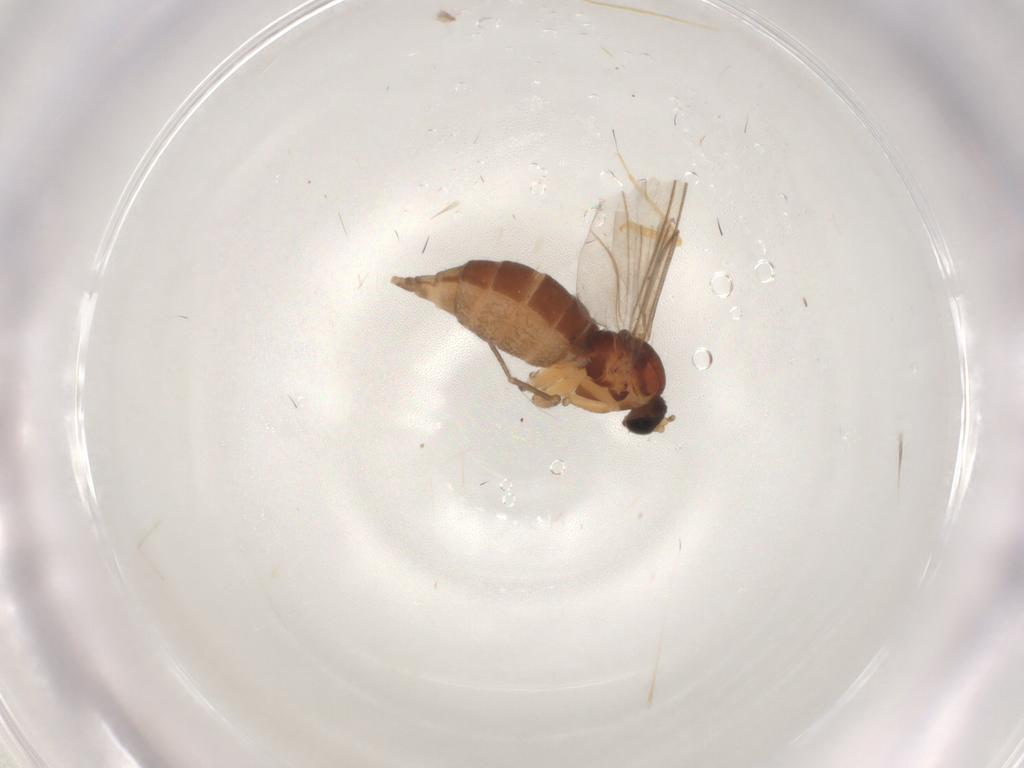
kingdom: Animalia
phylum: Arthropoda
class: Insecta
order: Diptera
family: Sciaridae
